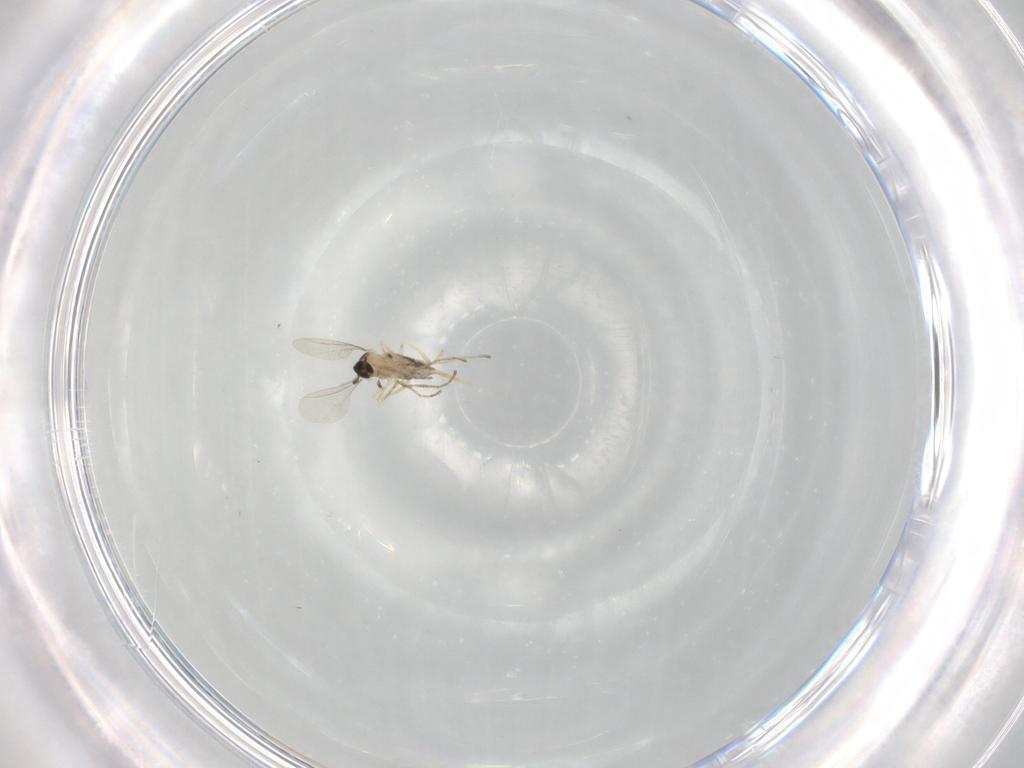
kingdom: Animalia
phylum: Arthropoda
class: Insecta
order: Diptera
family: Cecidomyiidae
